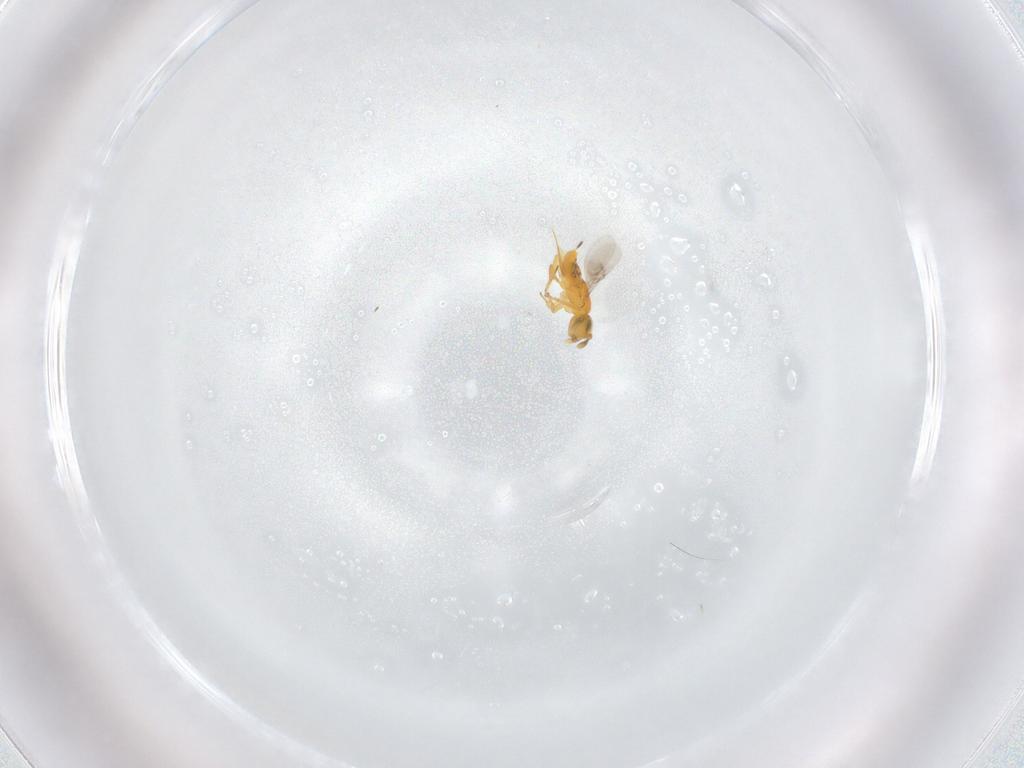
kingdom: Animalia
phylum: Arthropoda
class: Insecta
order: Hymenoptera
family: Encyrtidae
